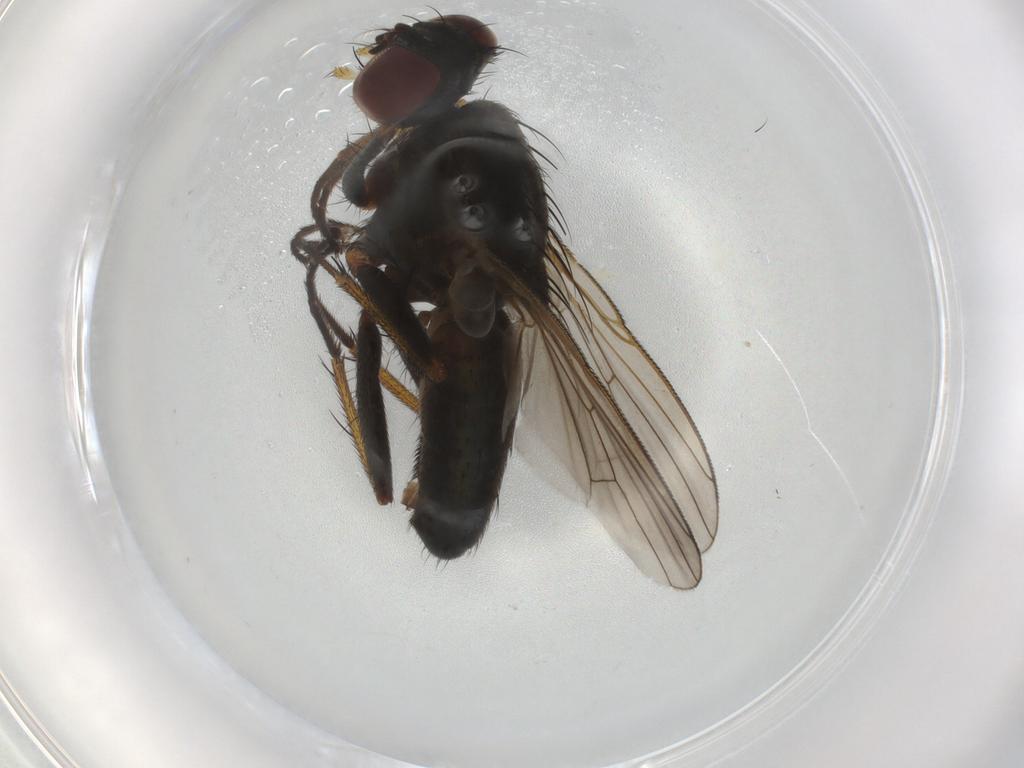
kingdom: Animalia
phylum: Arthropoda
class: Insecta
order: Diptera
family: Muscidae
